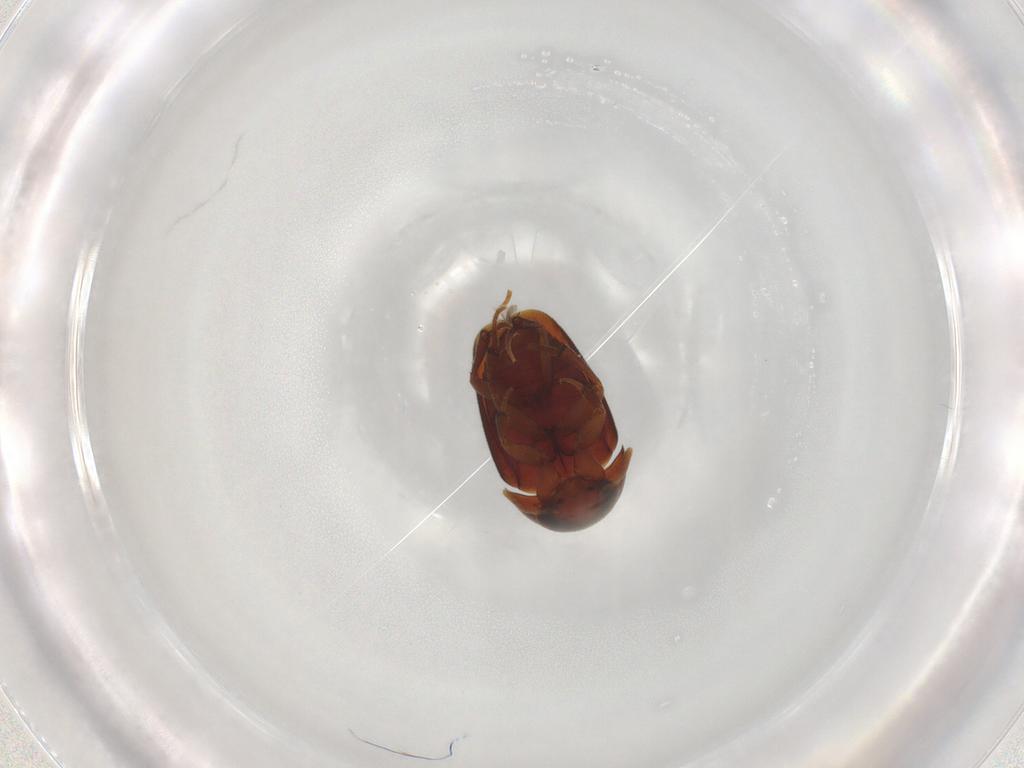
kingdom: Animalia
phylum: Arthropoda
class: Insecta
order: Coleoptera
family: Leiodidae
